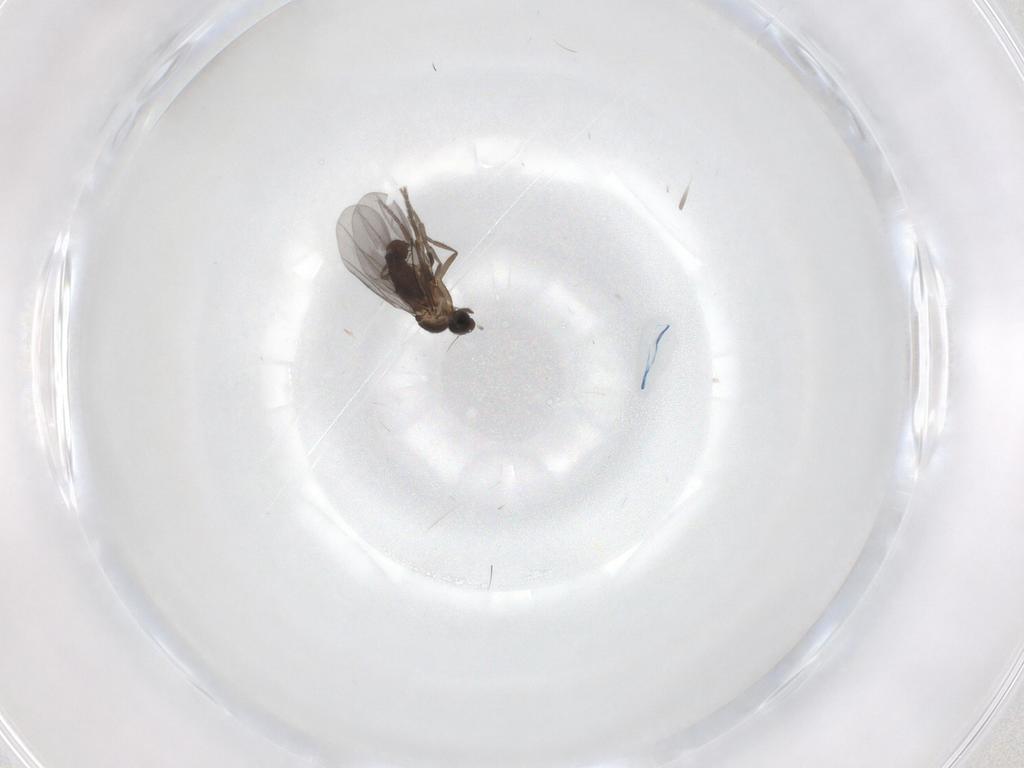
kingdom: Animalia
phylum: Arthropoda
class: Insecta
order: Diptera
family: Phoridae
